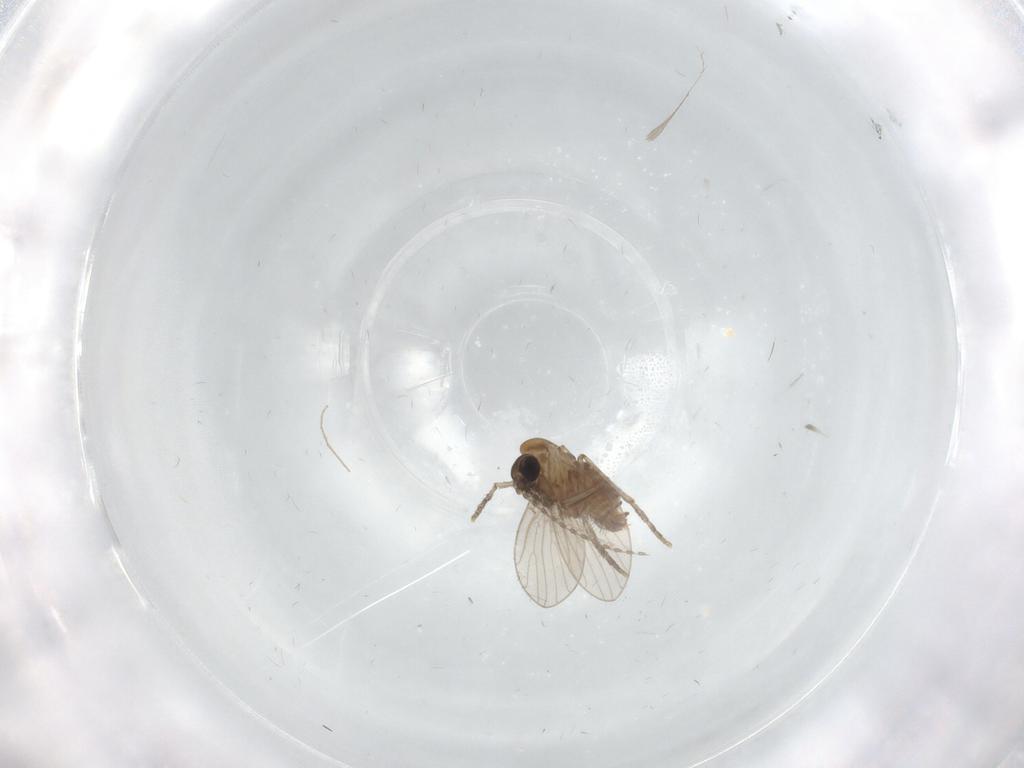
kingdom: Animalia
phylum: Arthropoda
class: Insecta
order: Diptera
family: Psychodidae
